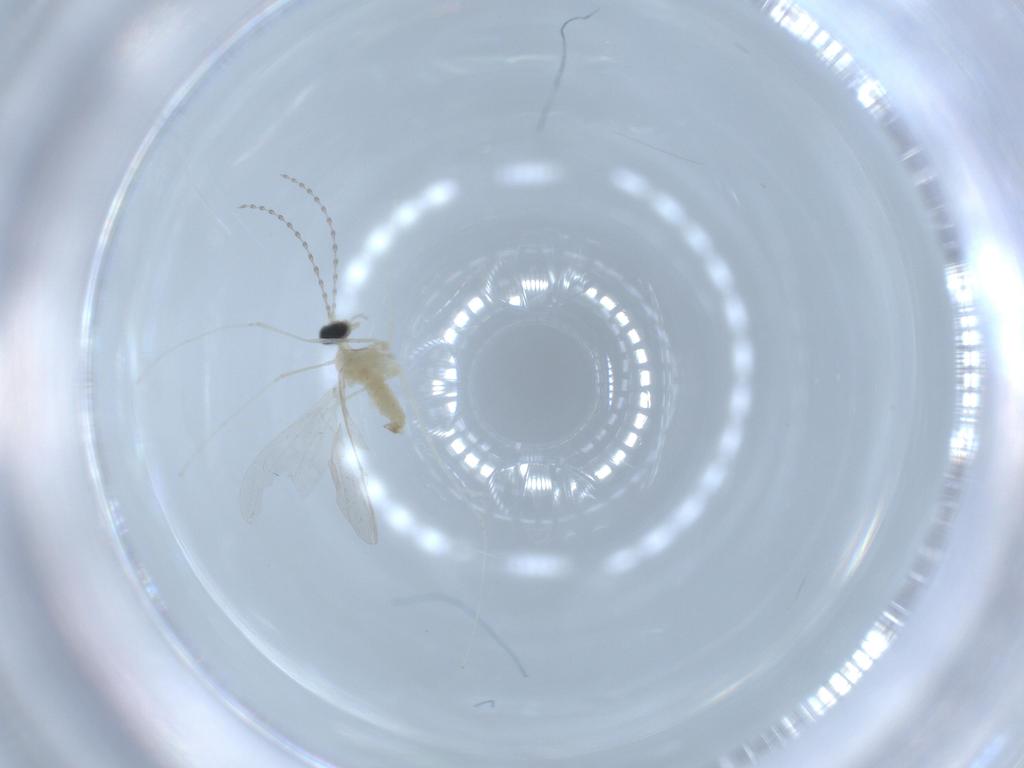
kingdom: Animalia
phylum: Arthropoda
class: Insecta
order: Diptera
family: Cecidomyiidae
